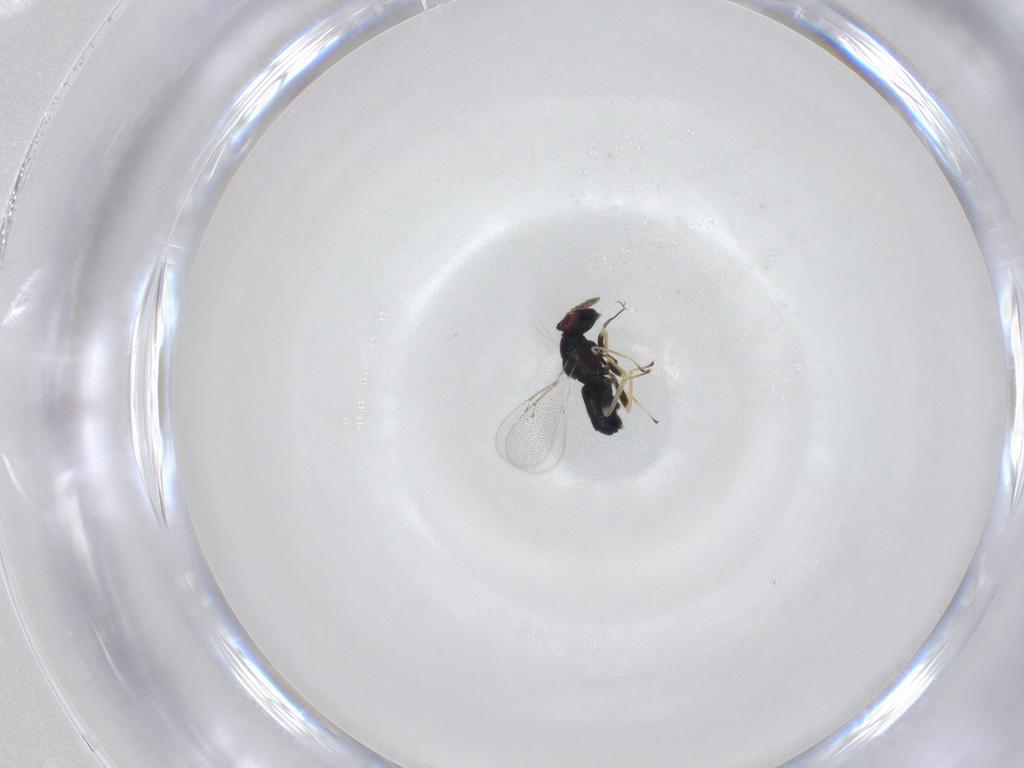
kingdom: Animalia
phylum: Arthropoda
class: Insecta
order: Hymenoptera
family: Eulophidae
